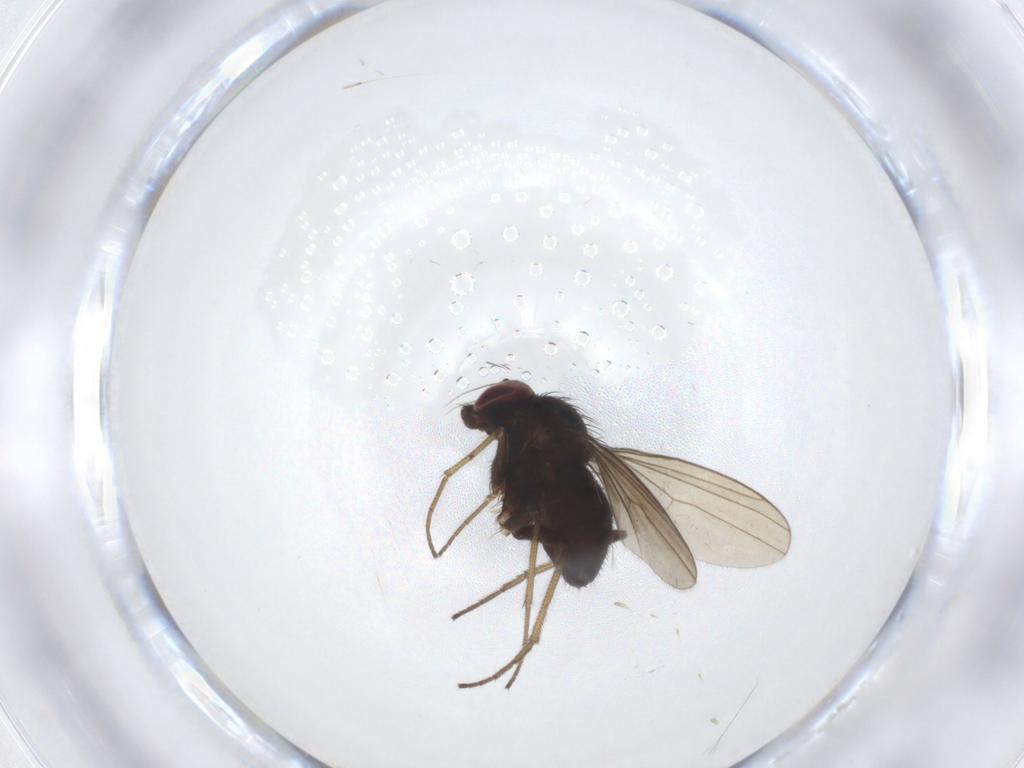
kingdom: Animalia
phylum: Arthropoda
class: Insecta
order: Diptera
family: Dolichopodidae
